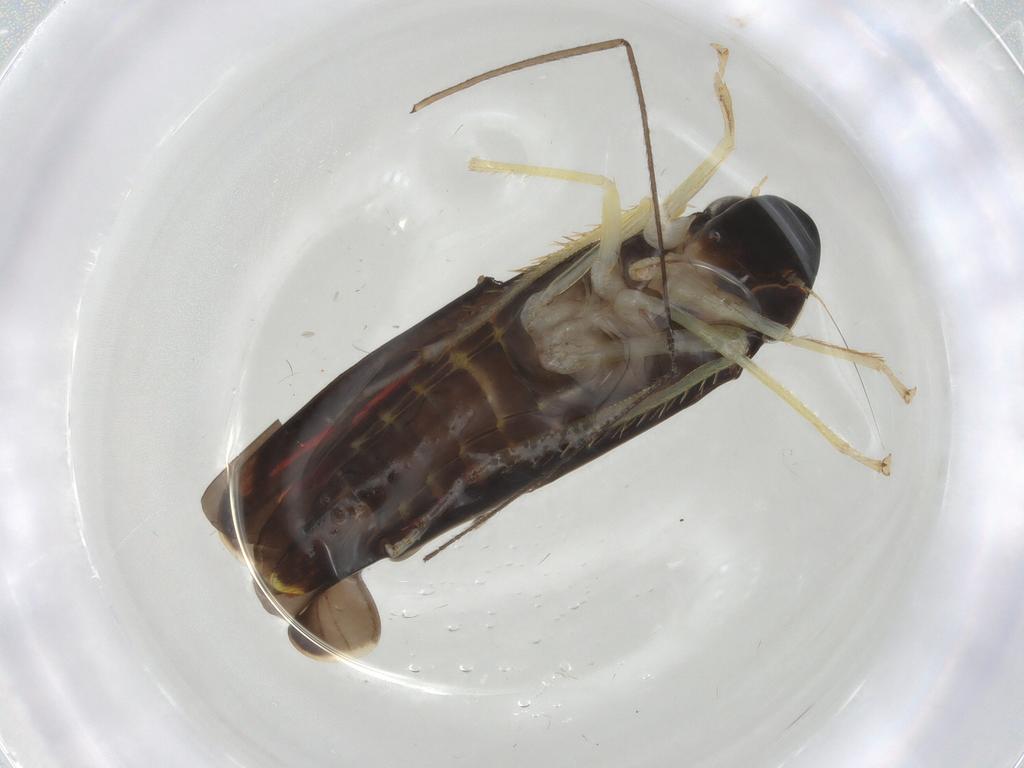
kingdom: Animalia
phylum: Arthropoda
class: Insecta
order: Hemiptera
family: Cicadellidae
